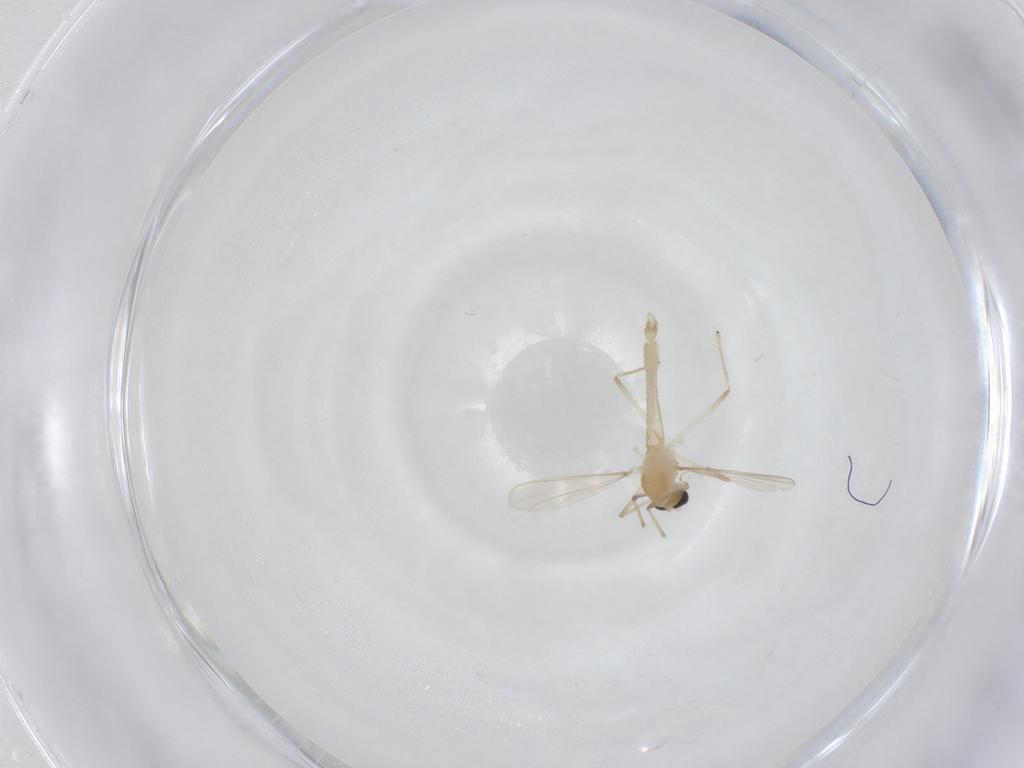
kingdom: Animalia
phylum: Arthropoda
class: Insecta
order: Diptera
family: Chironomidae
